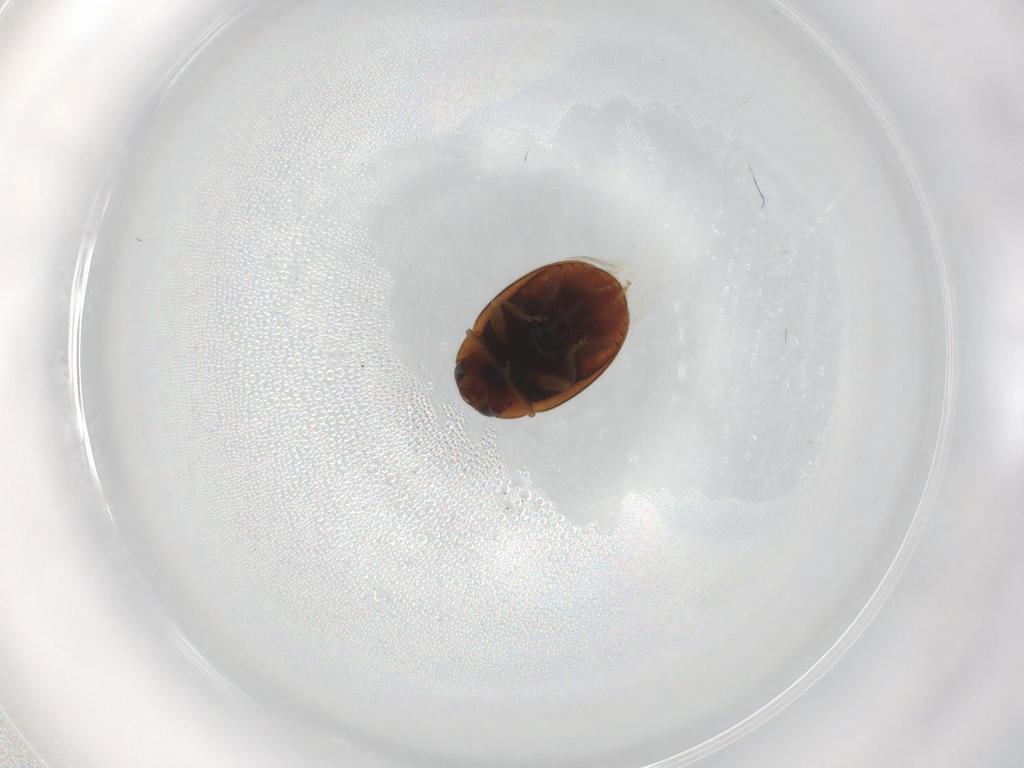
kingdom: Animalia
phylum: Arthropoda
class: Insecta
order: Coleoptera
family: Coccinellidae
